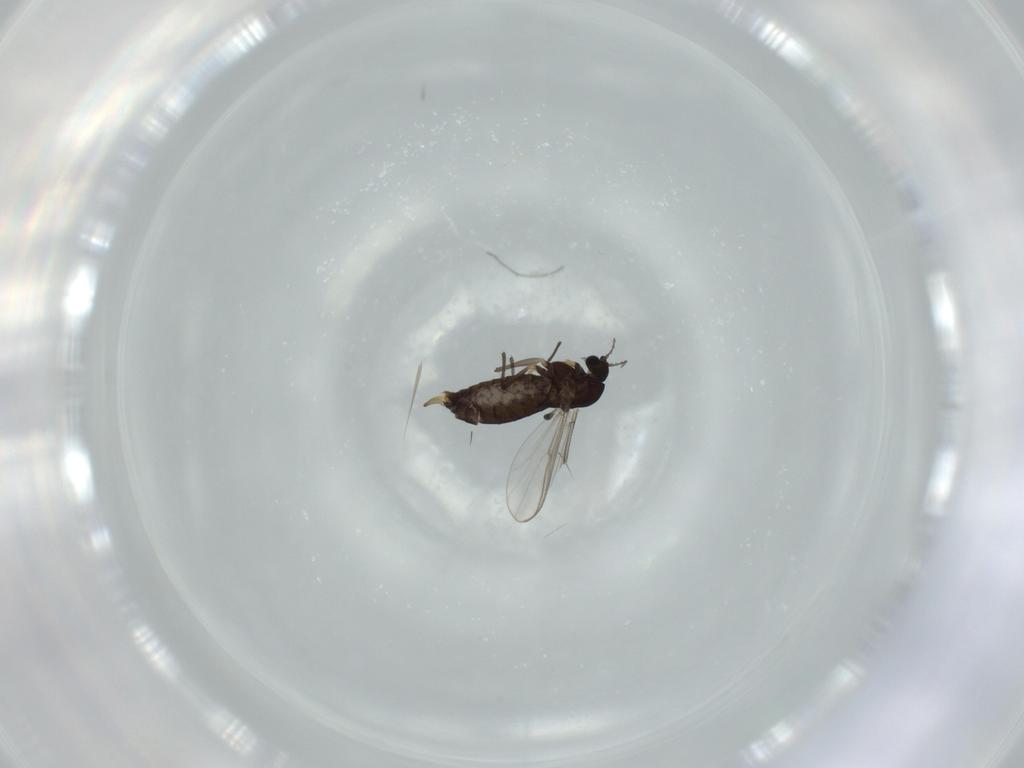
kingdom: Animalia
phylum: Arthropoda
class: Insecta
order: Diptera
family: Chironomidae
